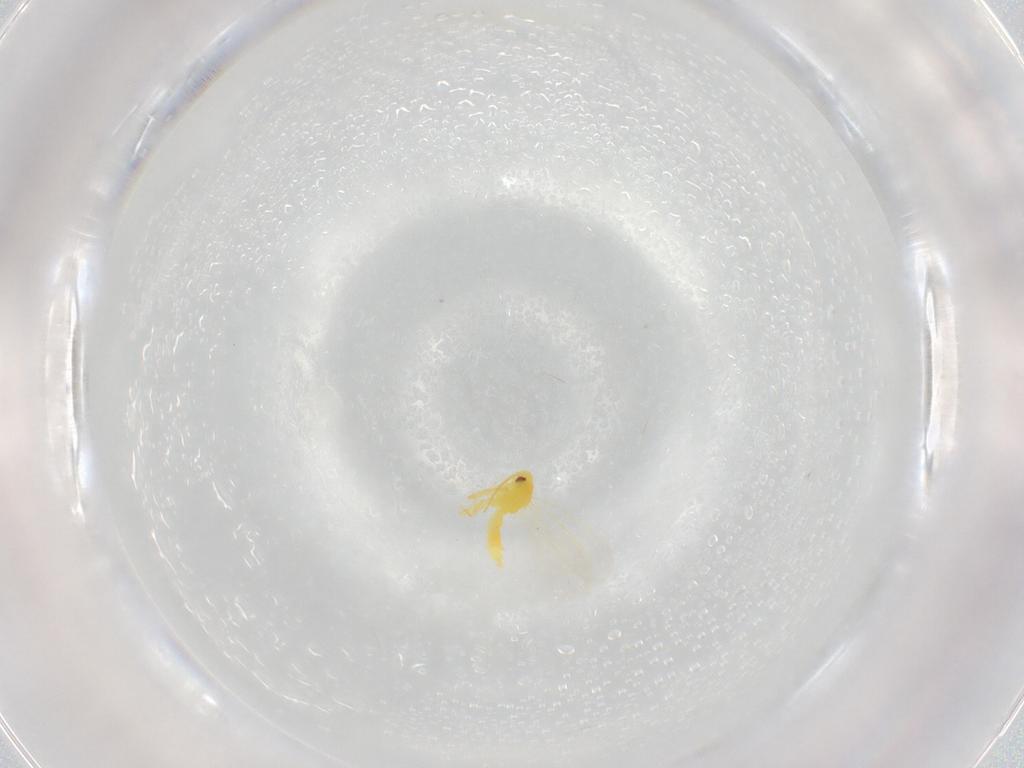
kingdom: Animalia
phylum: Arthropoda
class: Insecta
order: Hemiptera
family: Aleyrodidae
